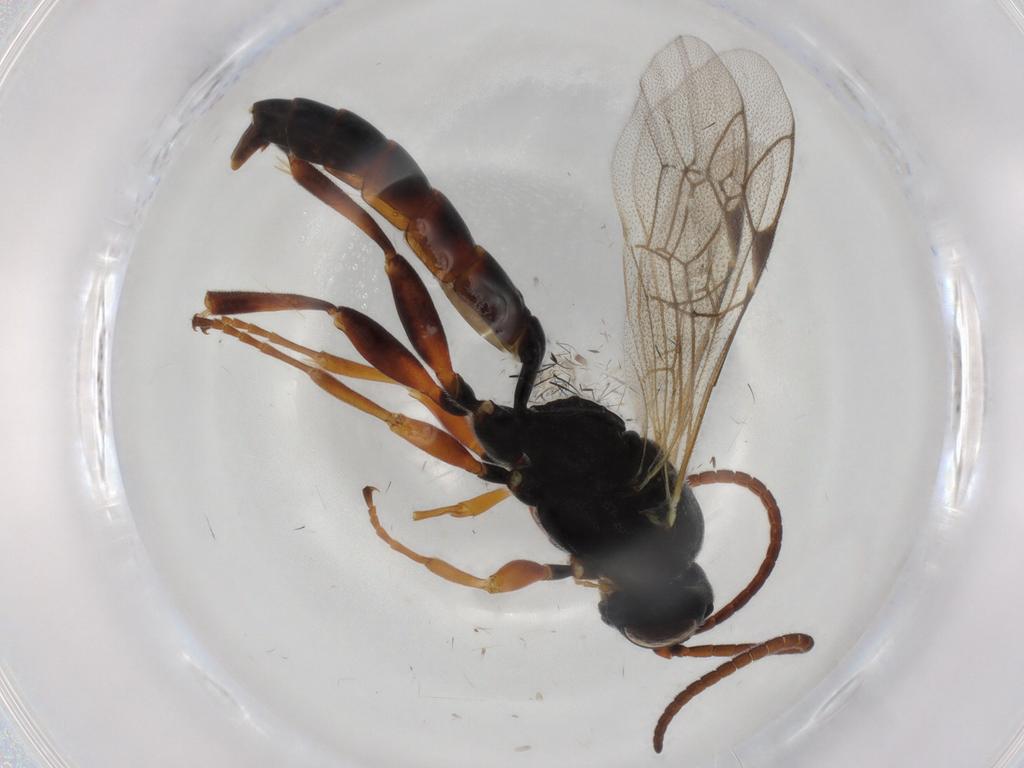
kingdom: Animalia
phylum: Arthropoda
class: Insecta
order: Hymenoptera
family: Ichneumonidae
